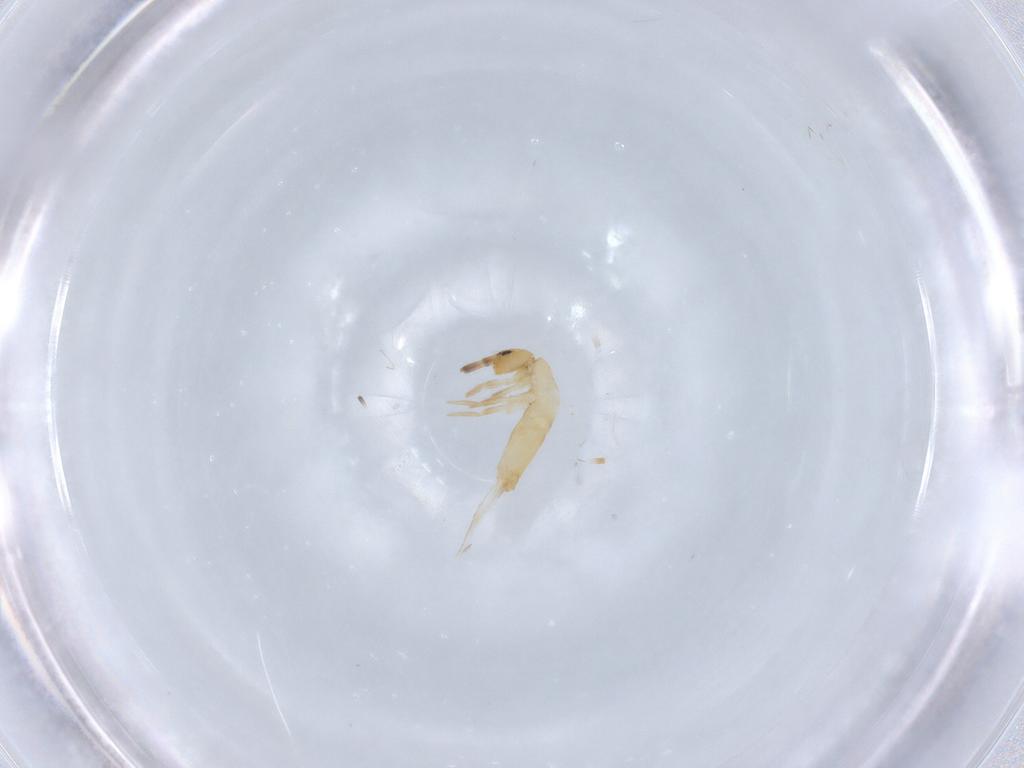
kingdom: Animalia
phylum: Arthropoda
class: Collembola
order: Entomobryomorpha
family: Entomobryidae
